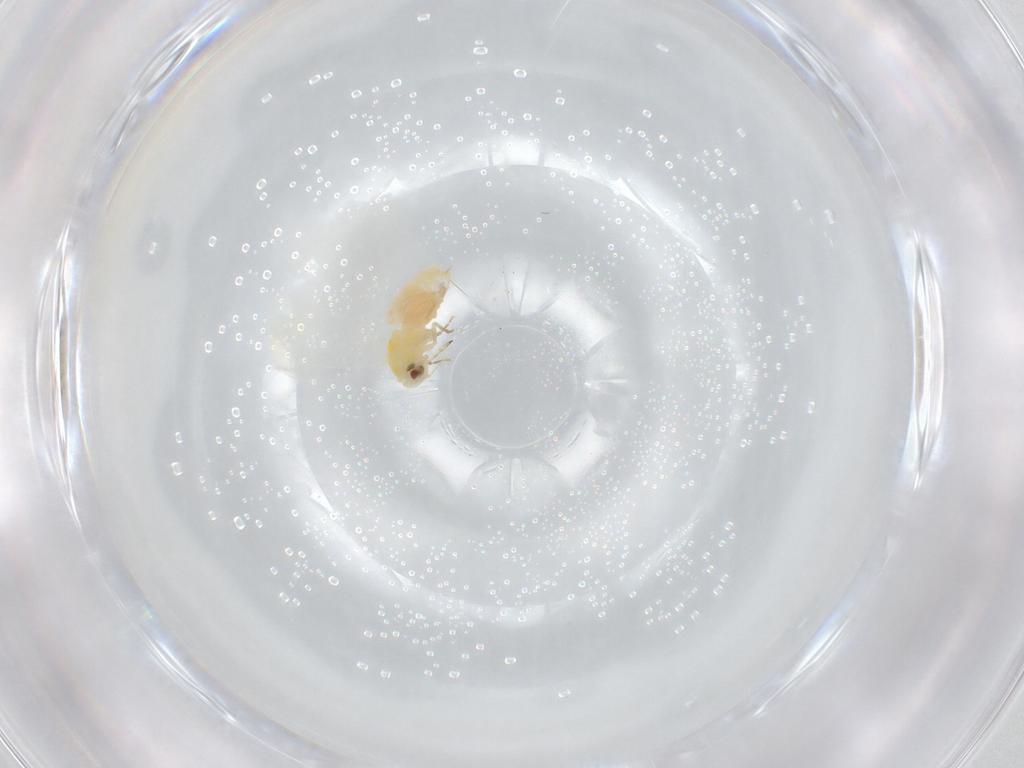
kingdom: Animalia
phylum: Arthropoda
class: Insecta
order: Hemiptera
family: Aleyrodidae
